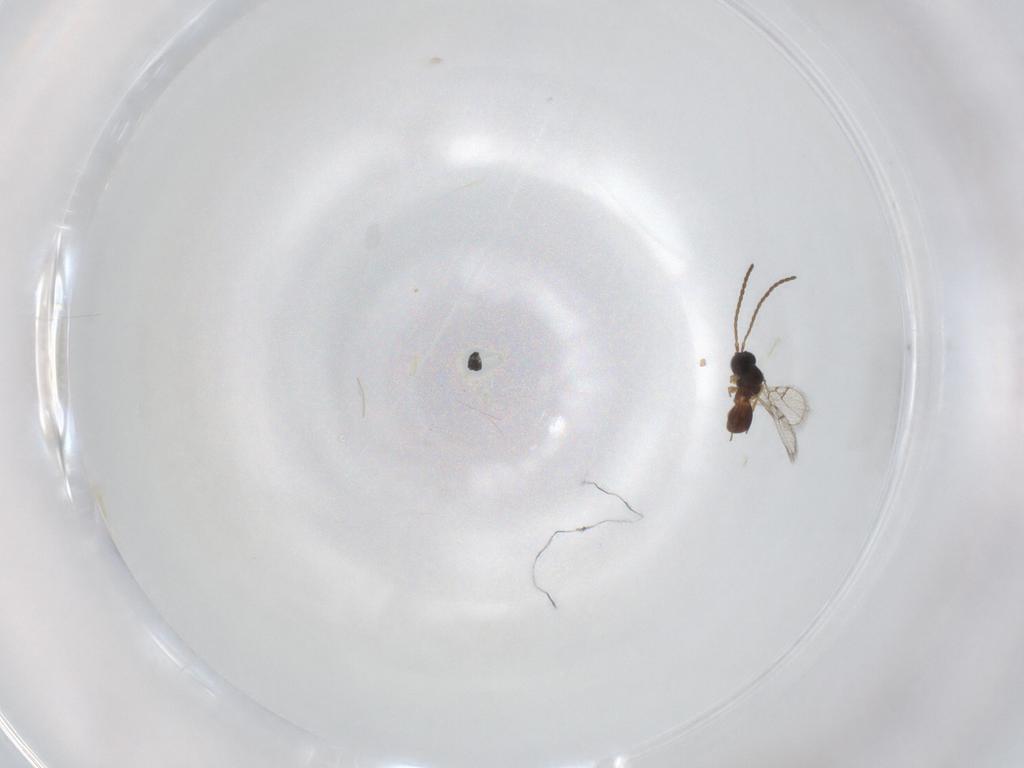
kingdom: Animalia
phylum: Arthropoda
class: Insecta
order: Hymenoptera
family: Figitidae
